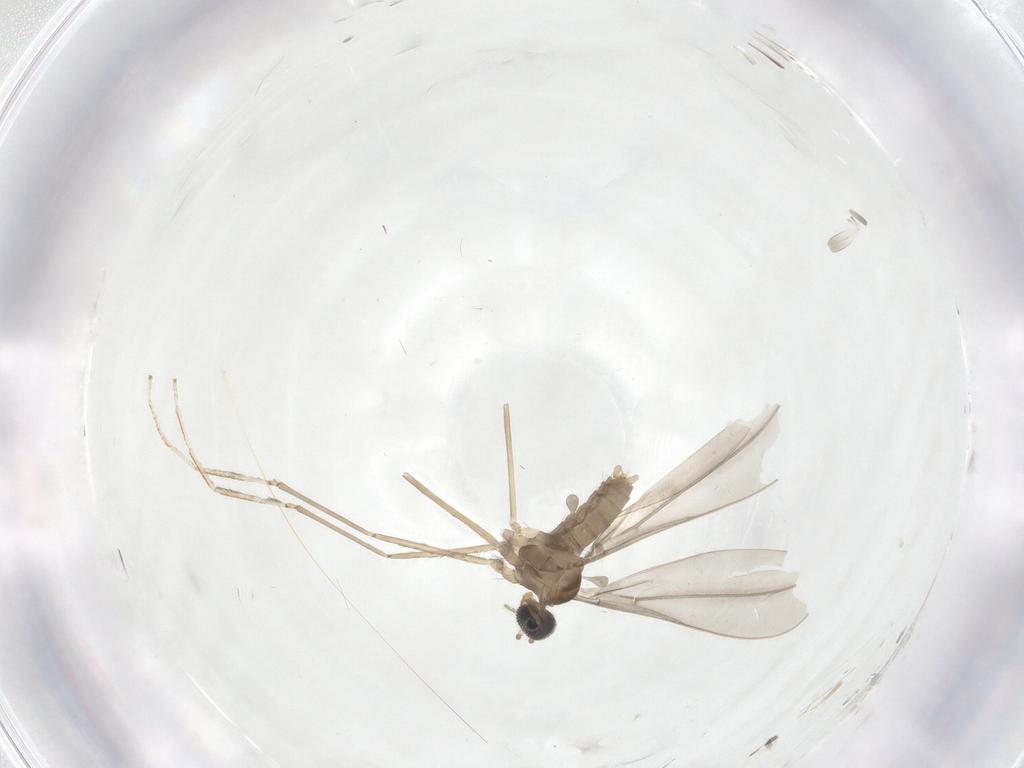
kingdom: Animalia
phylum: Arthropoda
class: Insecta
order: Diptera
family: Cecidomyiidae
